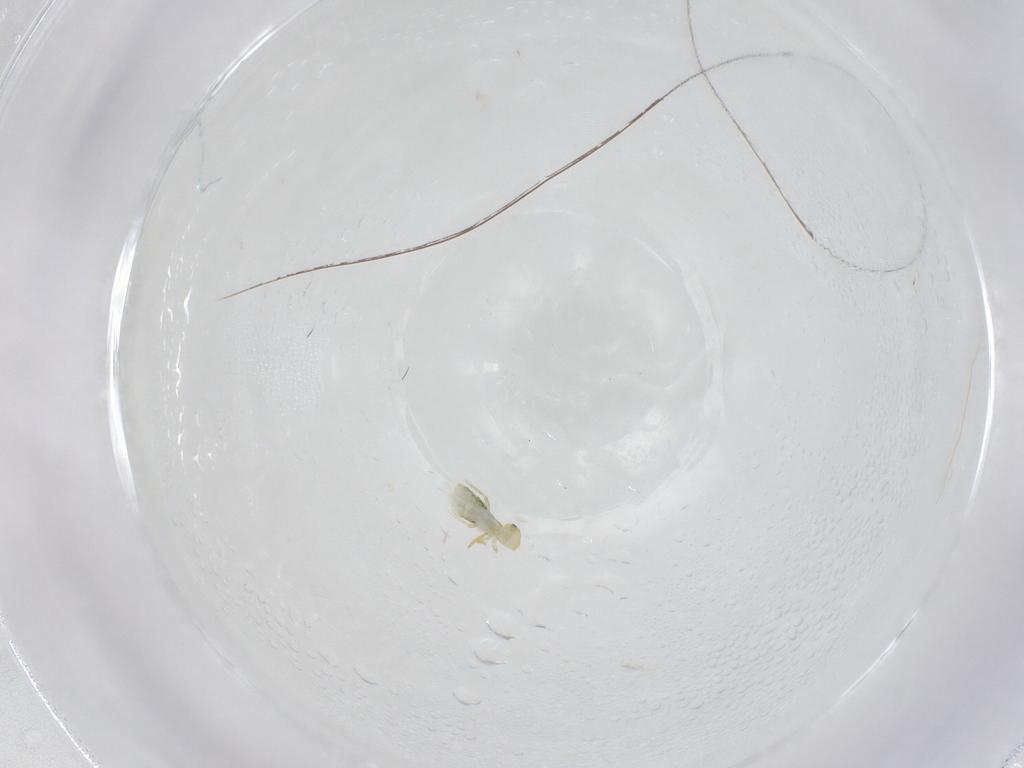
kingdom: Animalia
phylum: Arthropoda
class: Collembola
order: Symphypleona
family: Katiannidae
